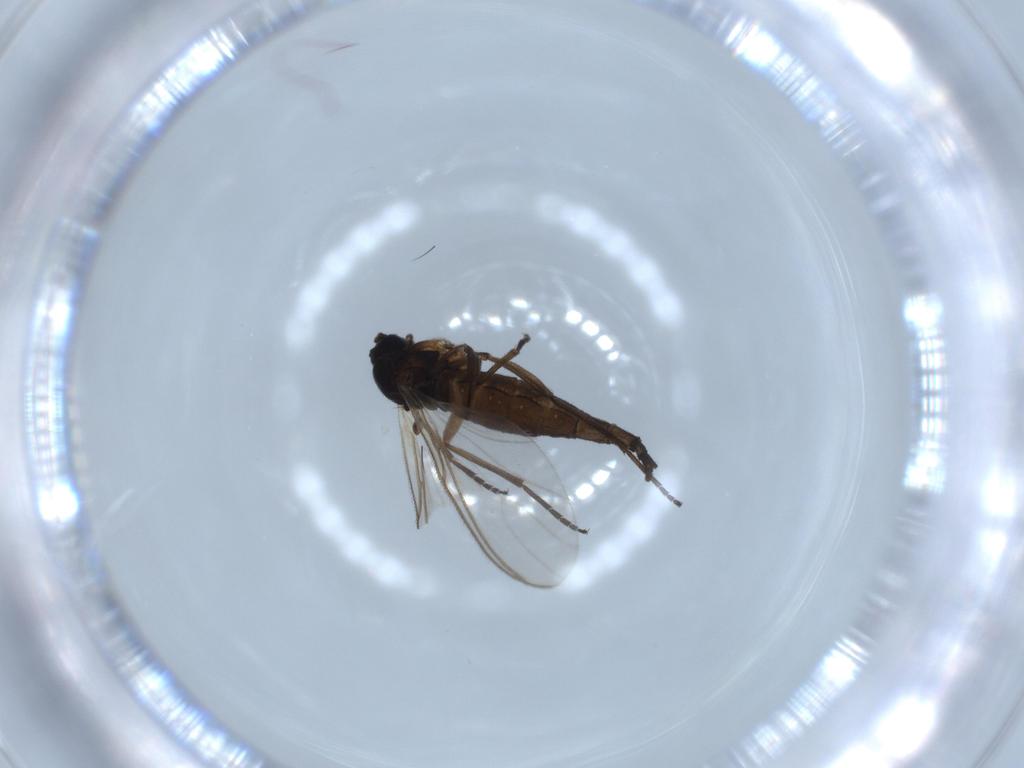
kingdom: Animalia
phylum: Arthropoda
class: Insecta
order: Diptera
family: Sciaridae
